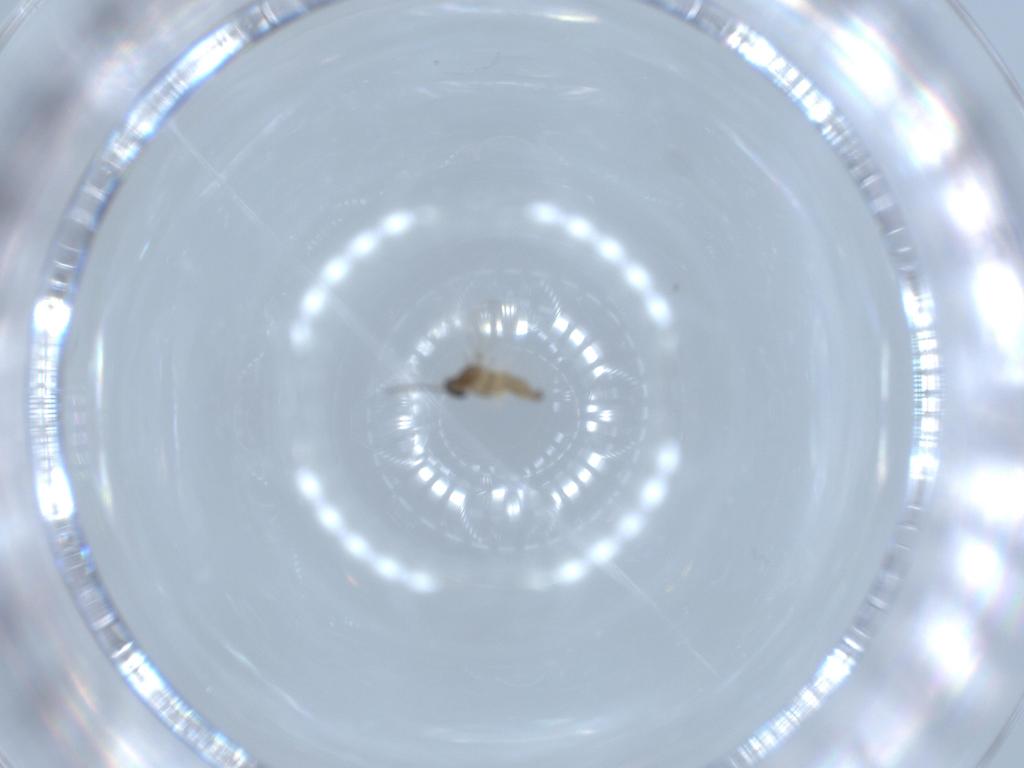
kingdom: Animalia
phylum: Arthropoda
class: Insecta
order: Diptera
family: Cecidomyiidae
